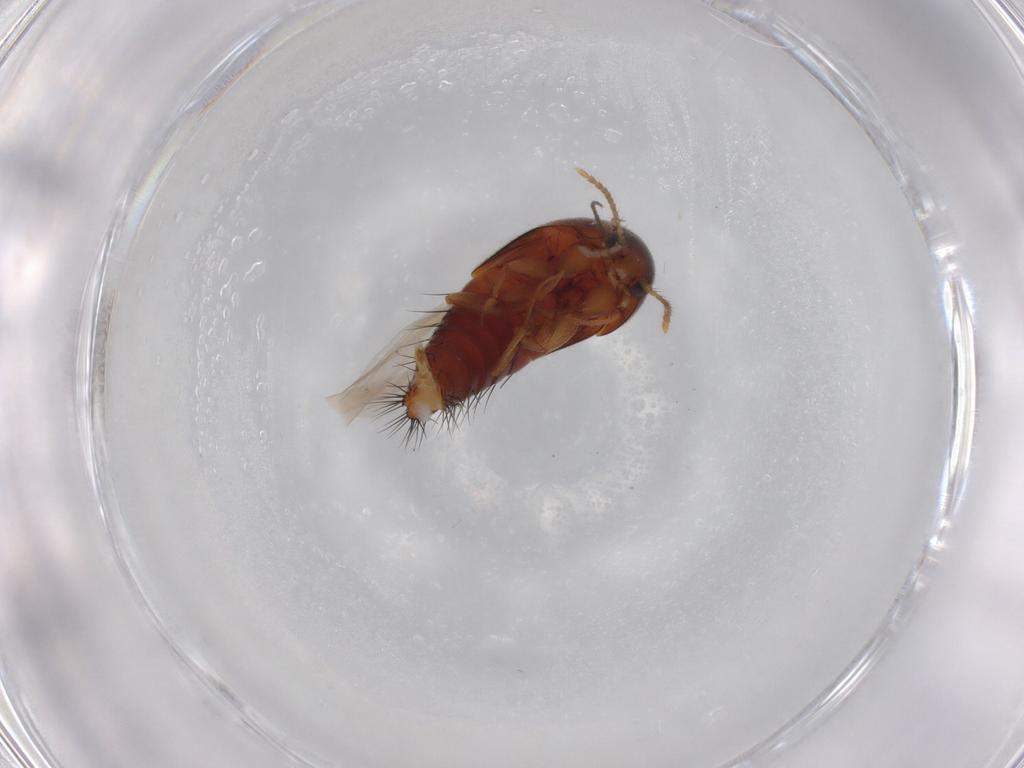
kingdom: Animalia
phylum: Arthropoda
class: Insecta
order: Coleoptera
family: Staphylinidae
